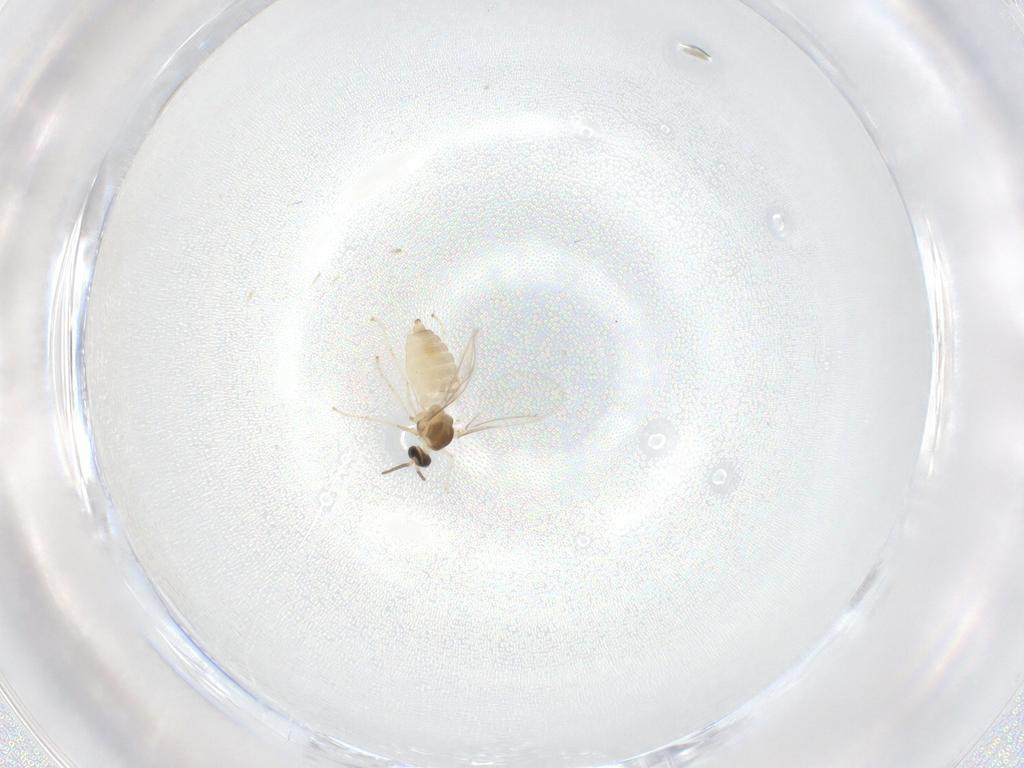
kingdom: Animalia
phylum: Arthropoda
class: Insecta
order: Diptera
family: Cecidomyiidae
